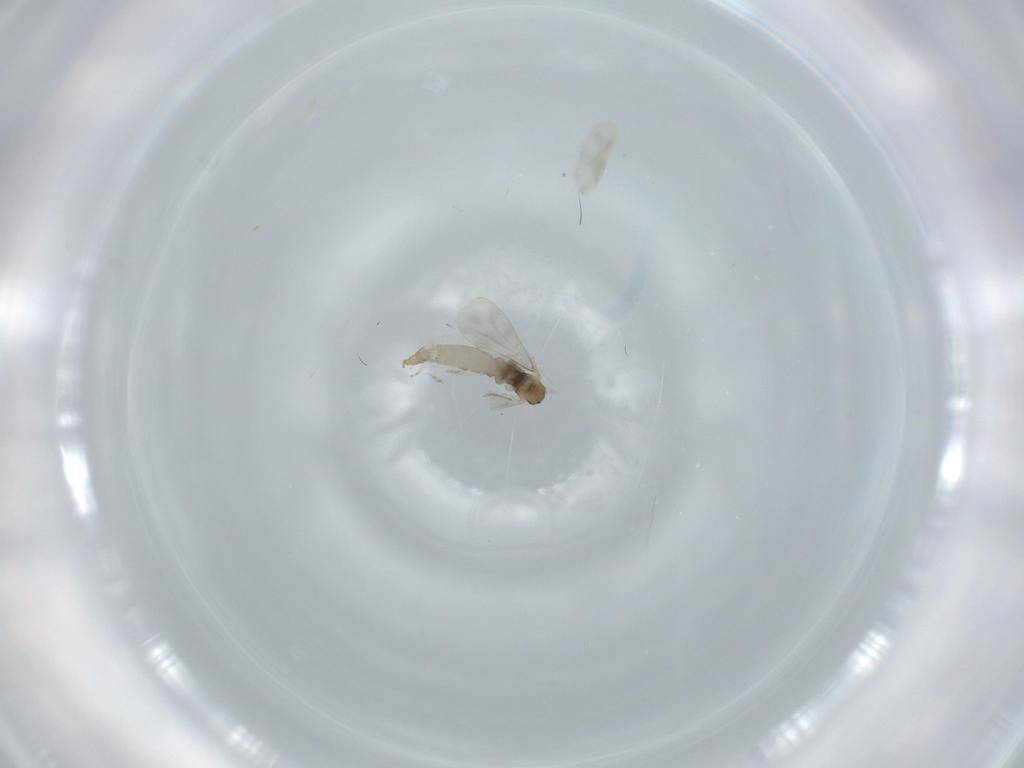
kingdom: Animalia
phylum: Arthropoda
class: Insecta
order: Diptera
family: Cecidomyiidae
